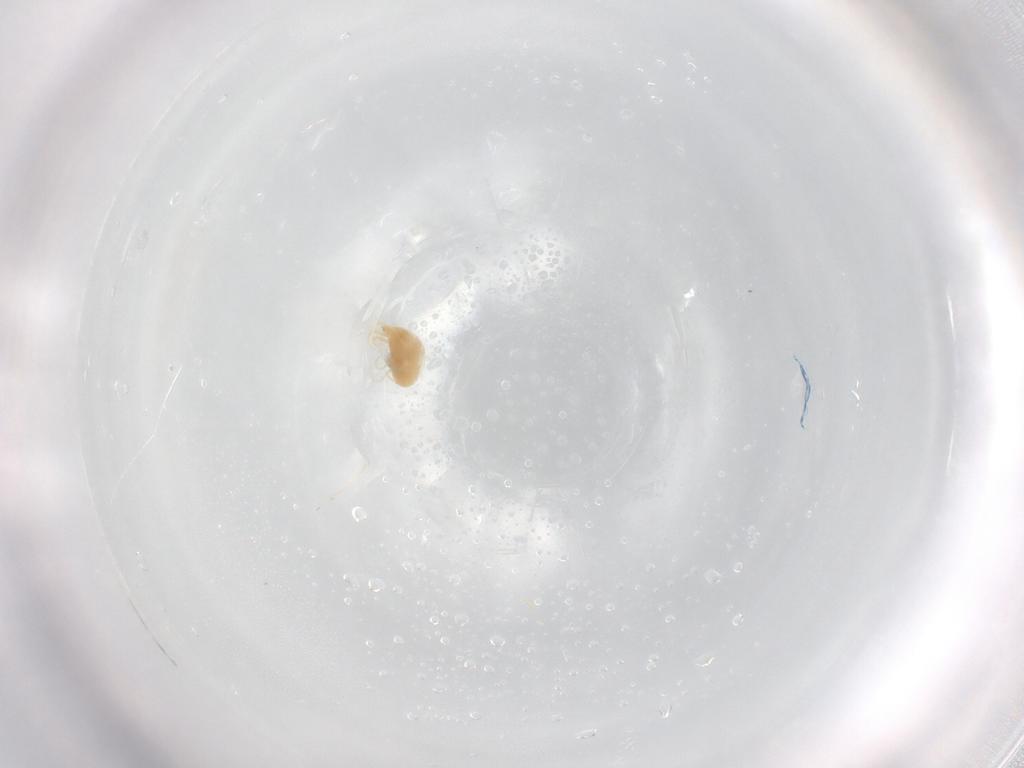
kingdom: Animalia
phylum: Arthropoda
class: Arachnida
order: Trombidiformes
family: Tetranychidae
